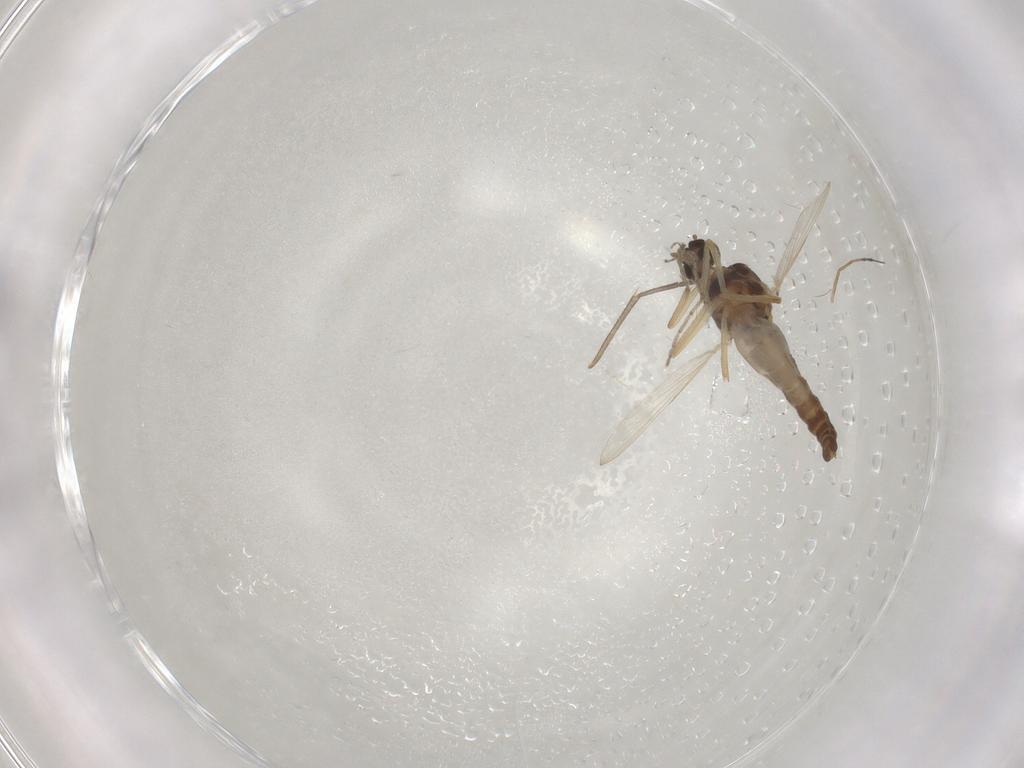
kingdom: Animalia
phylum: Arthropoda
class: Insecta
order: Diptera
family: Ceratopogonidae
